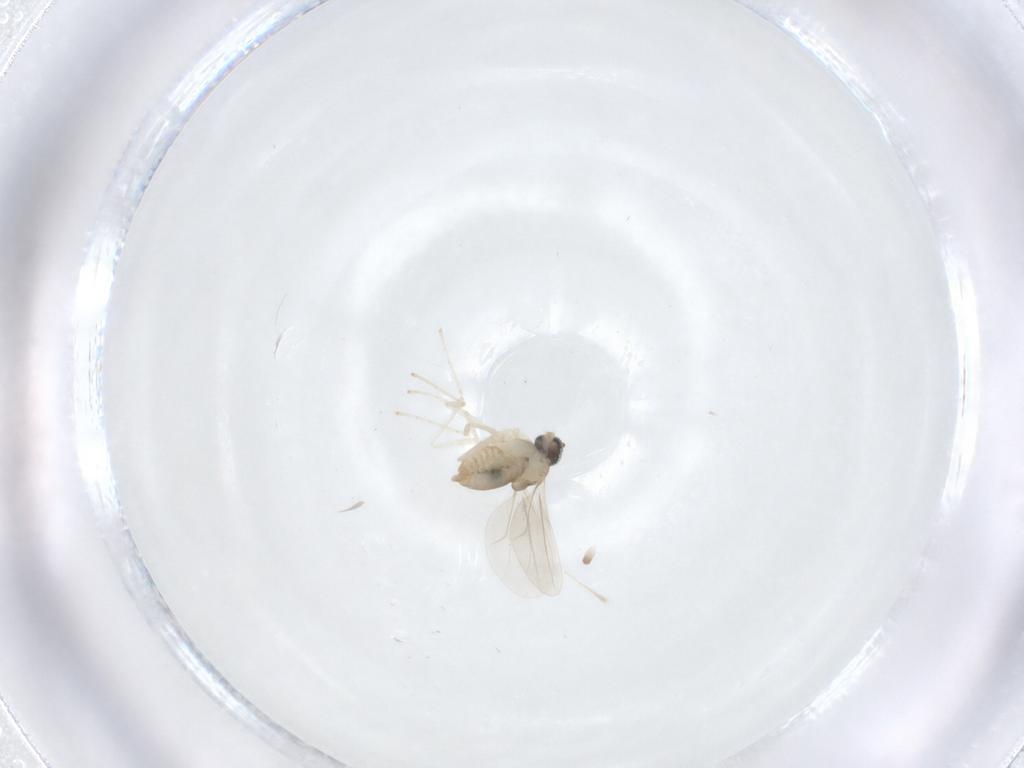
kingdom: Animalia
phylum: Arthropoda
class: Insecta
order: Diptera
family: Cecidomyiidae
